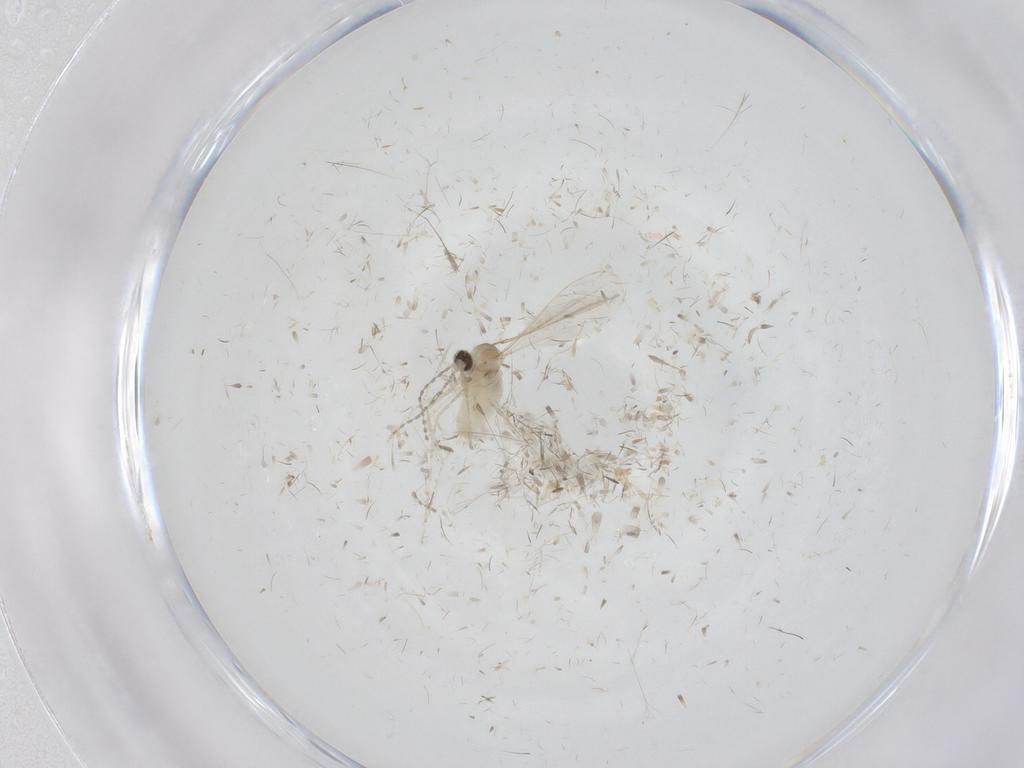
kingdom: Animalia
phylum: Arthropoda
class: Insecta
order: Diptera
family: Cecidomyiidae
